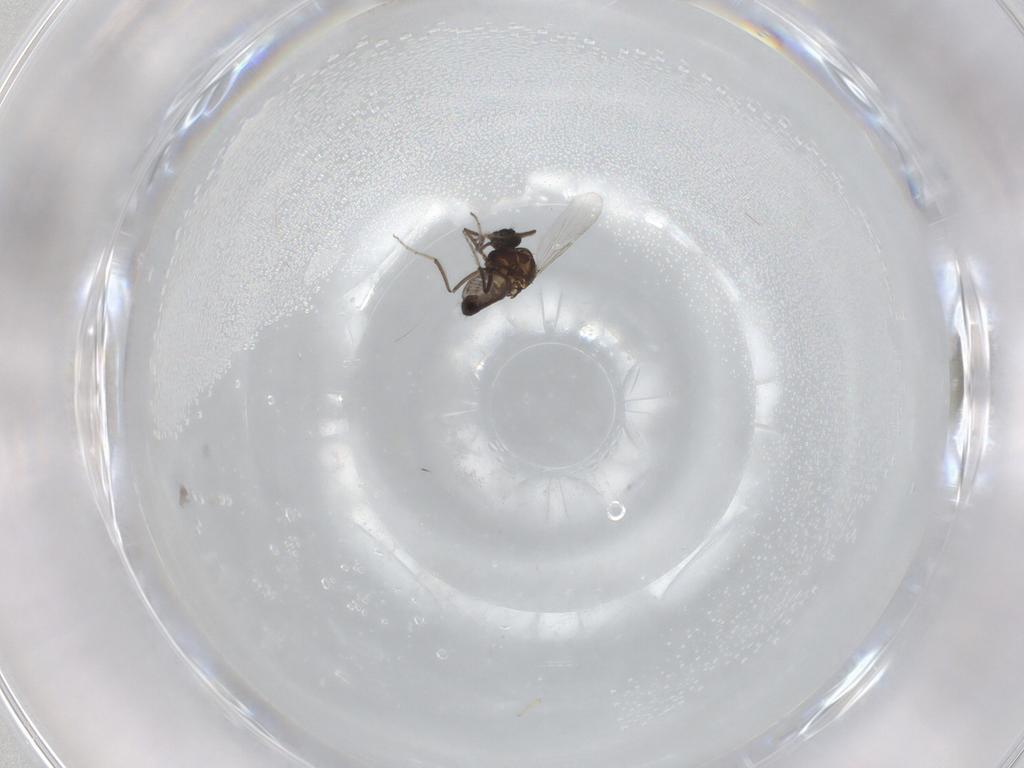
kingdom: Animalia
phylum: Arthropoda
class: Insecta
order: Diptera
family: Ceratopogonidae
